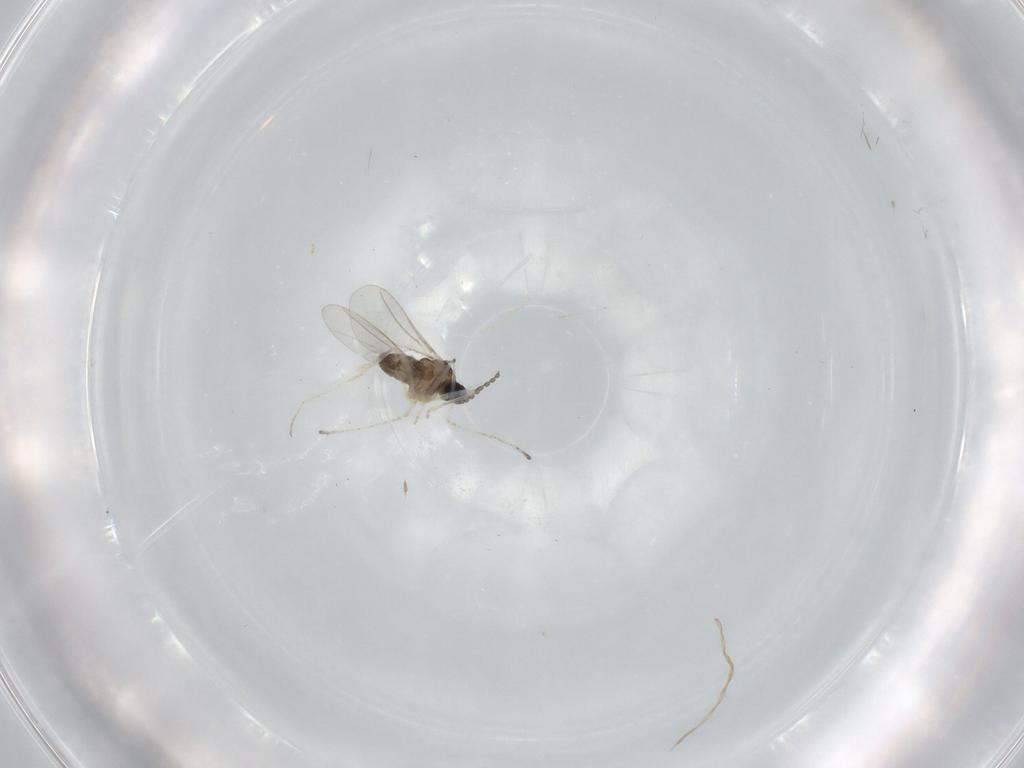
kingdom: Animalia
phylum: Arthropoda
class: Insecta
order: Diptera
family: Cecidomyiidae
